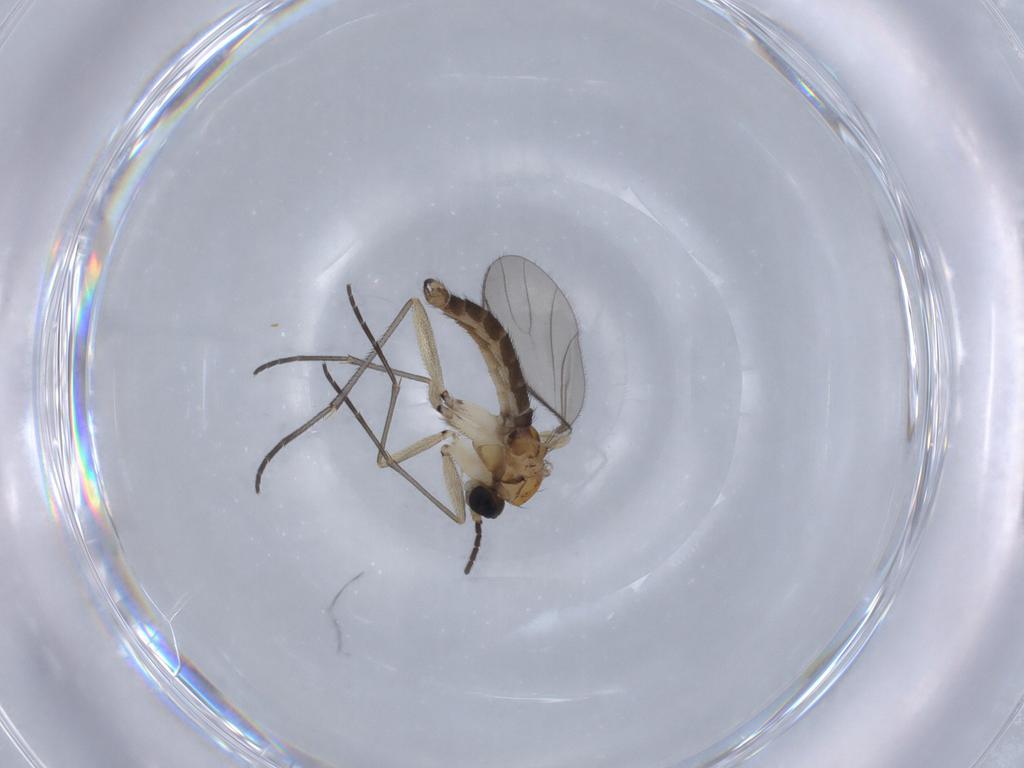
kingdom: Animalia
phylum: Arthropoda
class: Insecta
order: Diptera
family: Sciaridae
